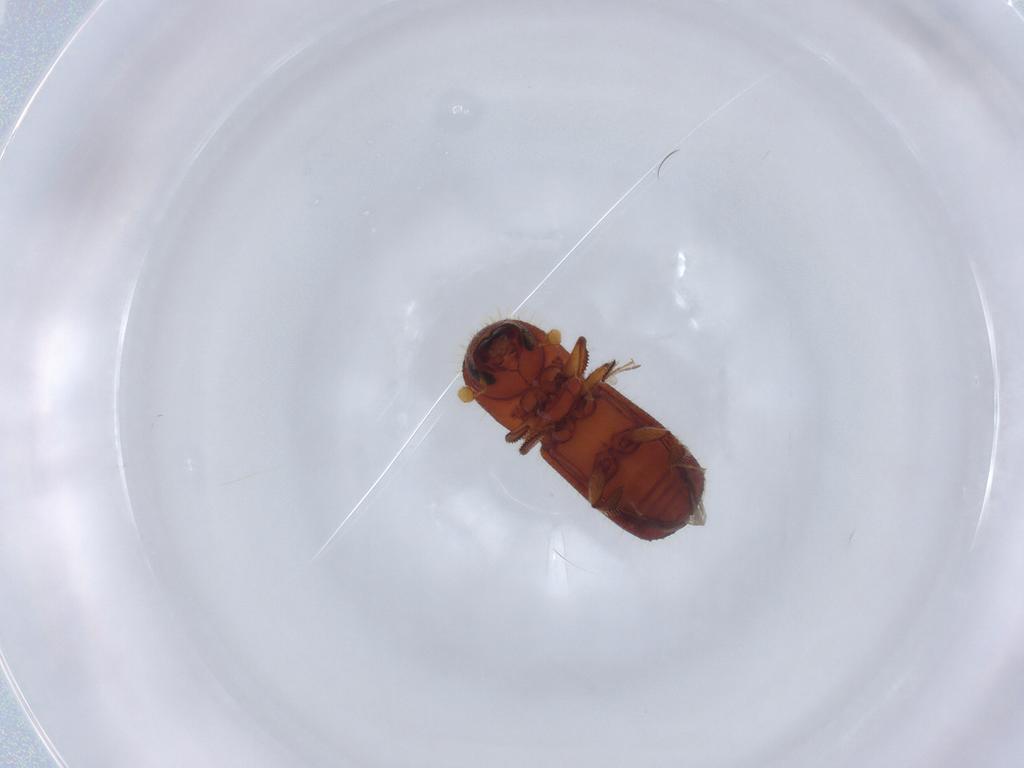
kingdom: Animalia
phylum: Arthropoda
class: Insecta
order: Coleoptera
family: Curculionidae
